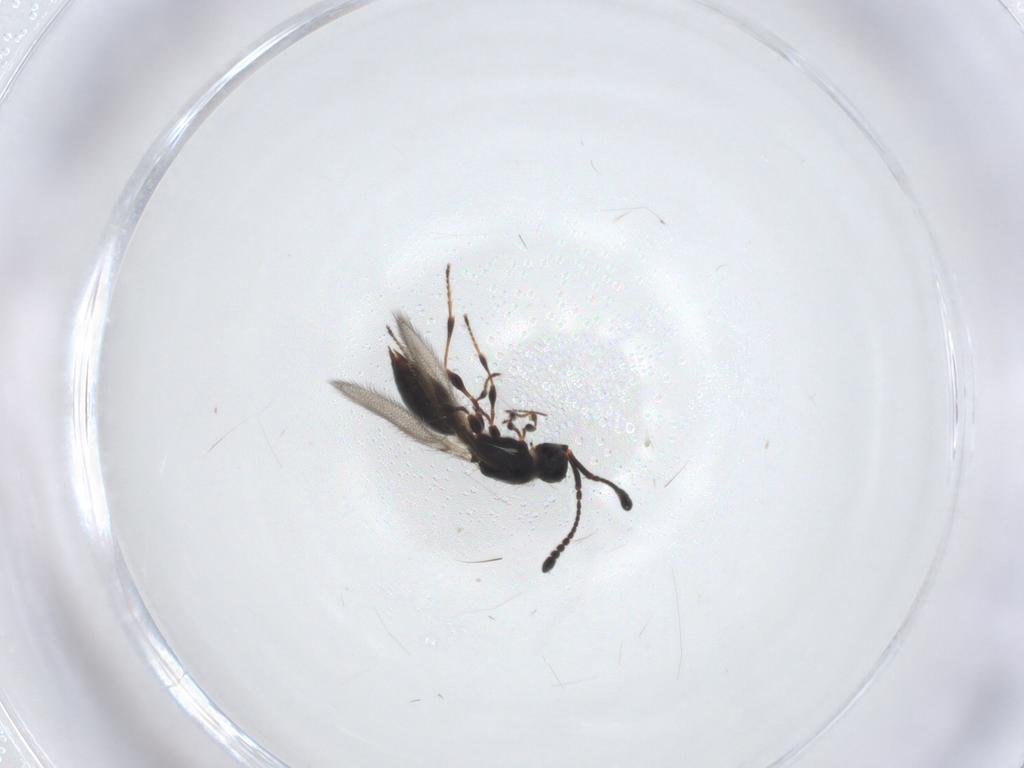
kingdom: Animalia
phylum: Arthropoda
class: Insecta
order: Hymenoptera
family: Diapriidae
